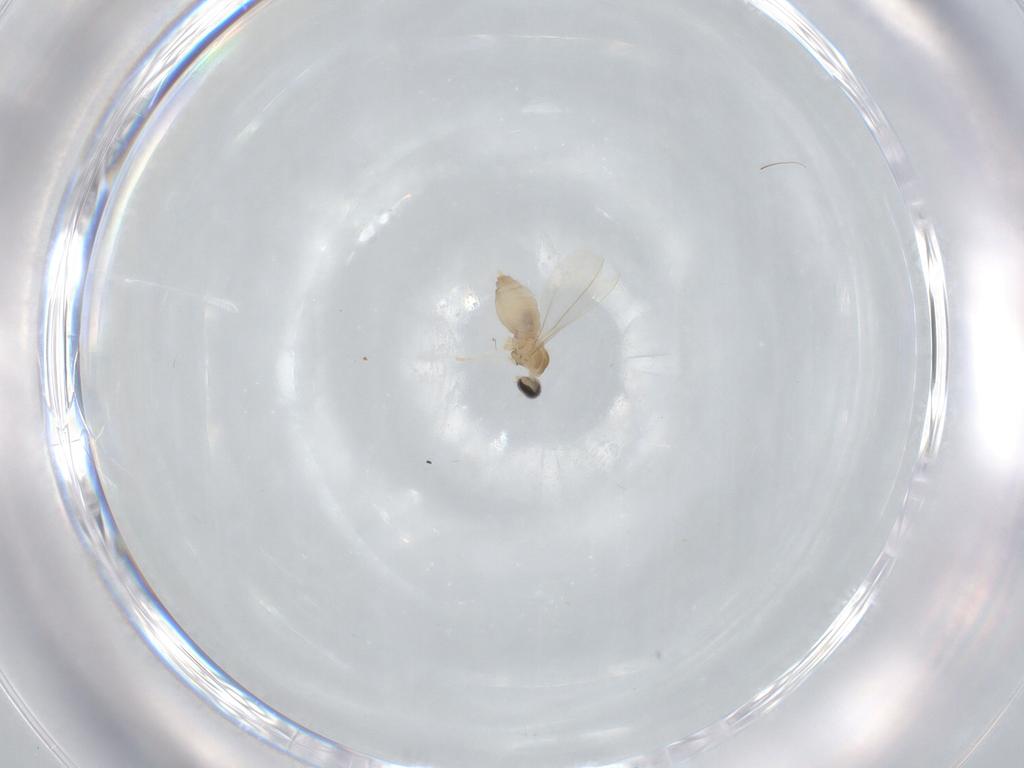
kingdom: Animalia
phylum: Arthropoda
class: Insecta
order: Diptera
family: Cecidomyiidae
